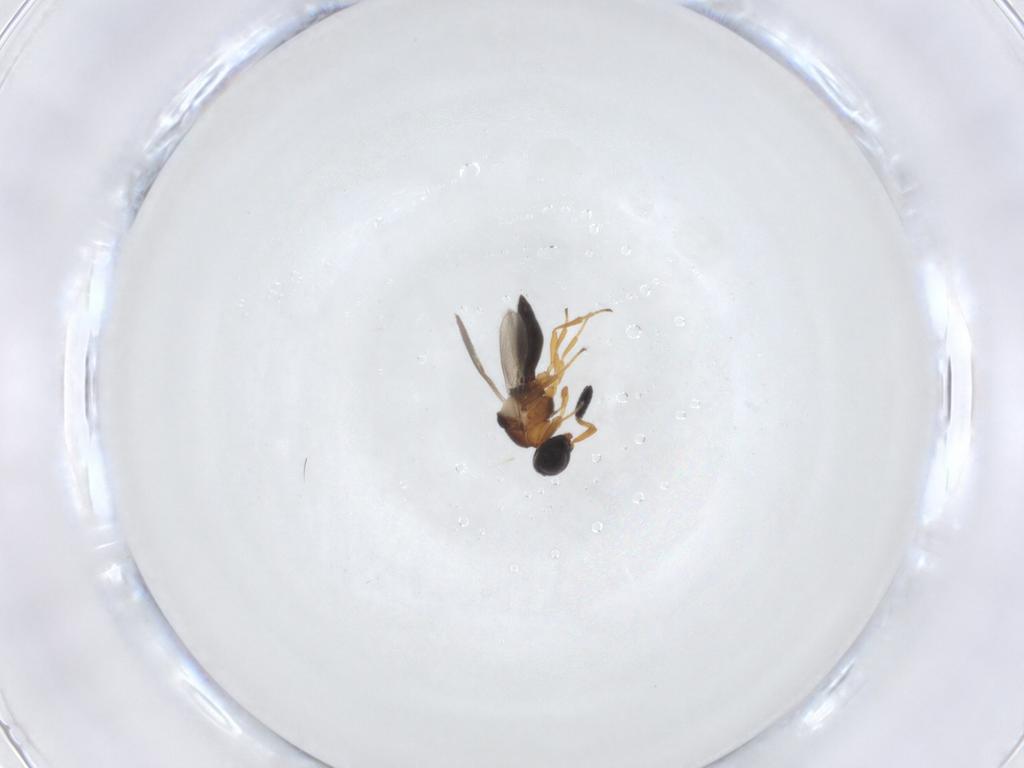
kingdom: Animalia
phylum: Arthropoda
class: Insecta
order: Hymenoptera
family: Scelionidae
